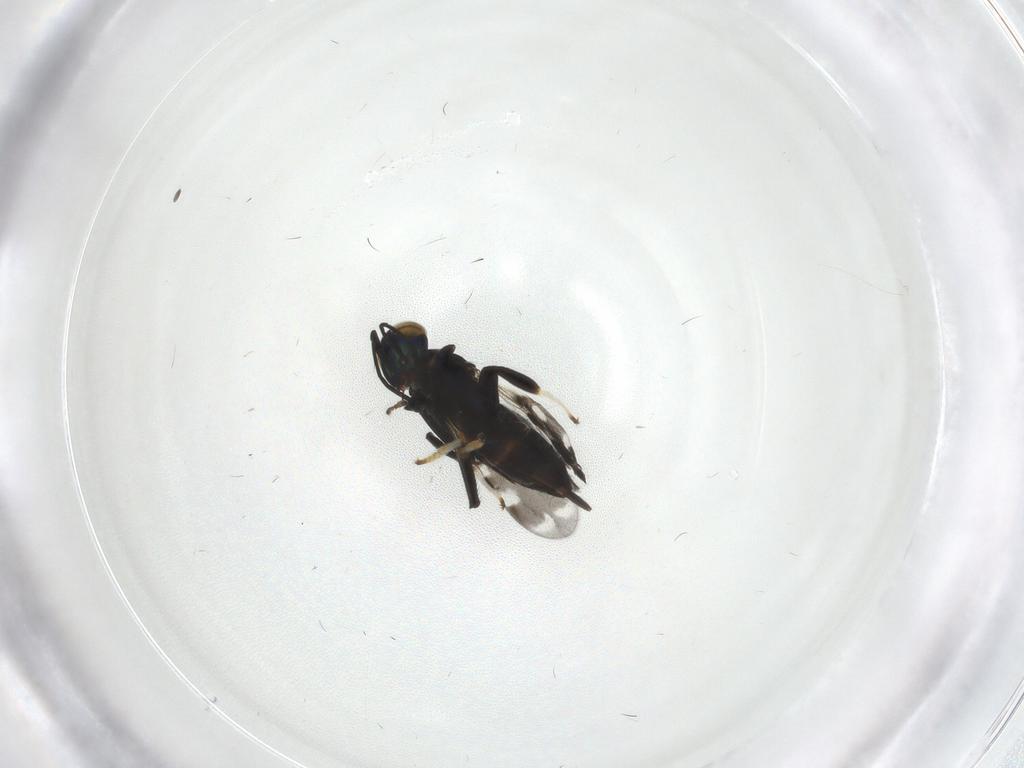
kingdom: Animalia
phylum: Arthropoda
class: Insecta
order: Hymenoptera
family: Encyrtidae
